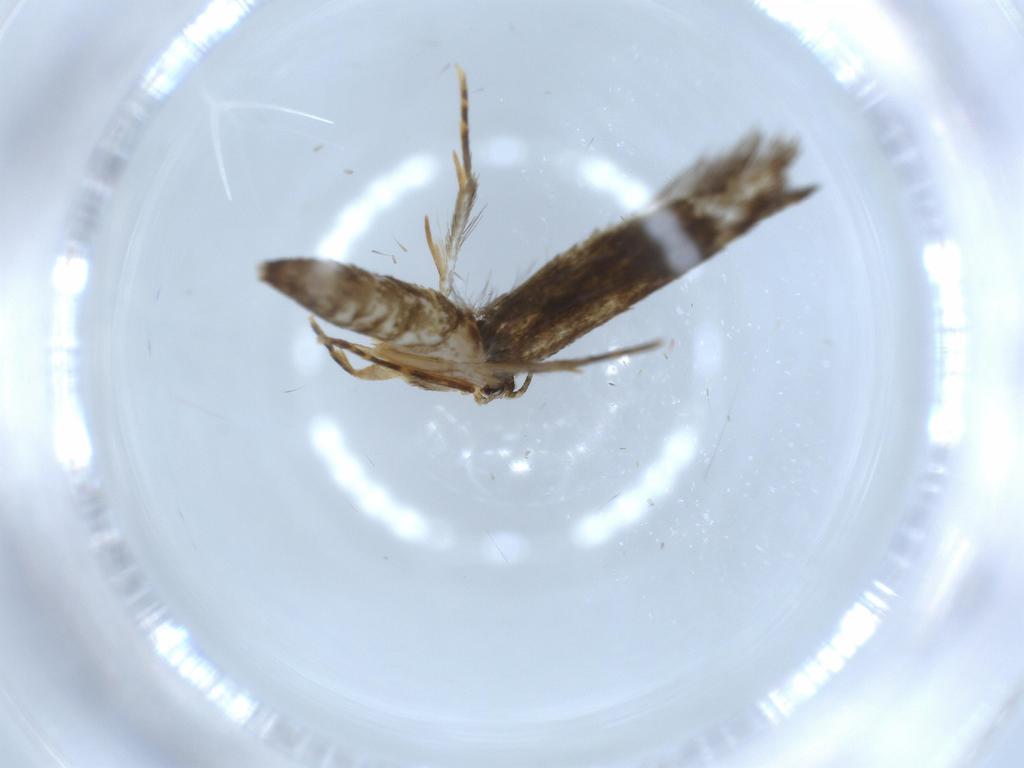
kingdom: Animalia
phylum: Arthropoda
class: Insecta
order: Lepidoptera
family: Tineidae
